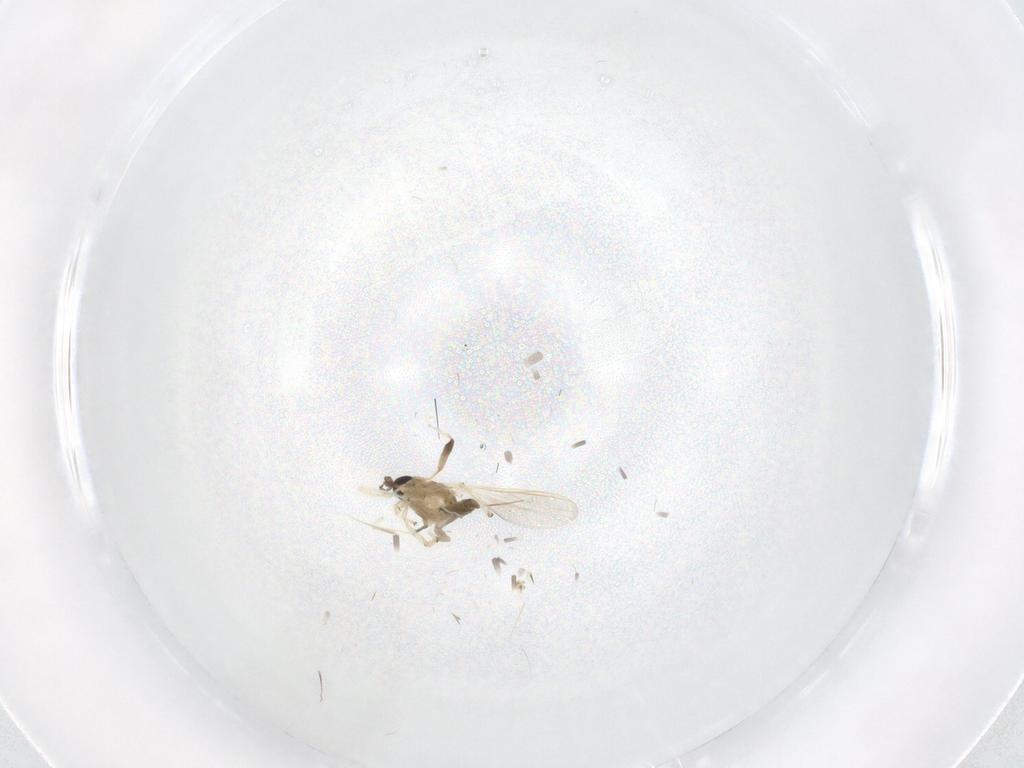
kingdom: Animalia
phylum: Arthropoda
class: Insecta
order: Diptera
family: Chironomidae
